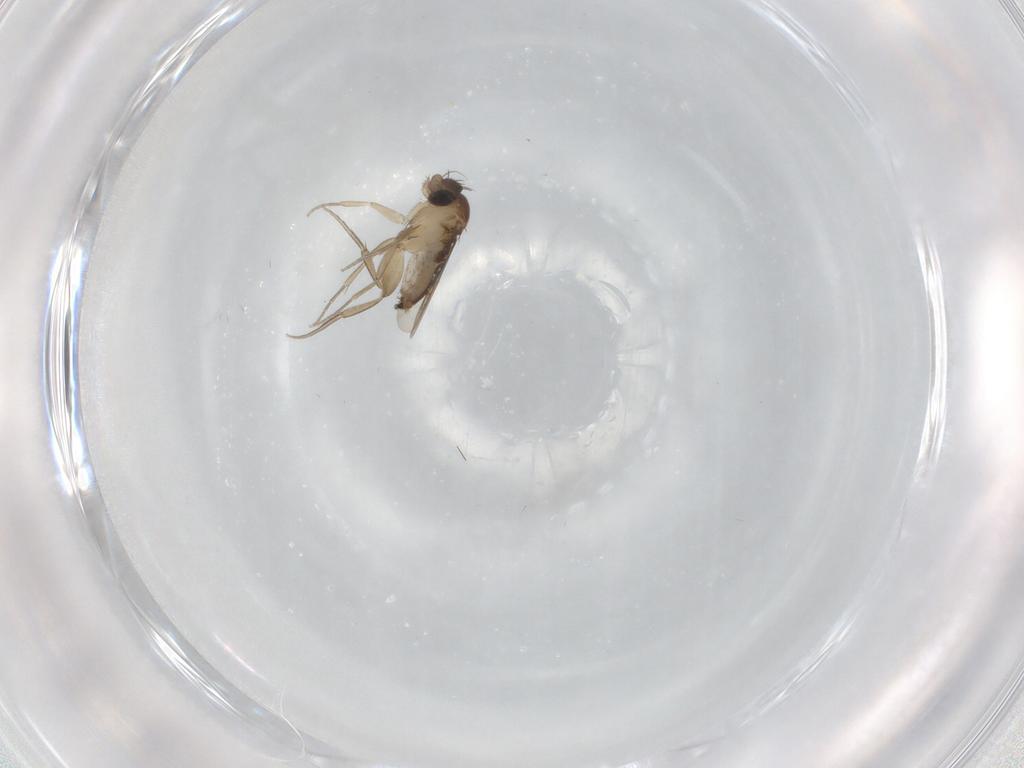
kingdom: Animalia
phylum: Arthropoda
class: Insecta
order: Diptera
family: Phoridae
